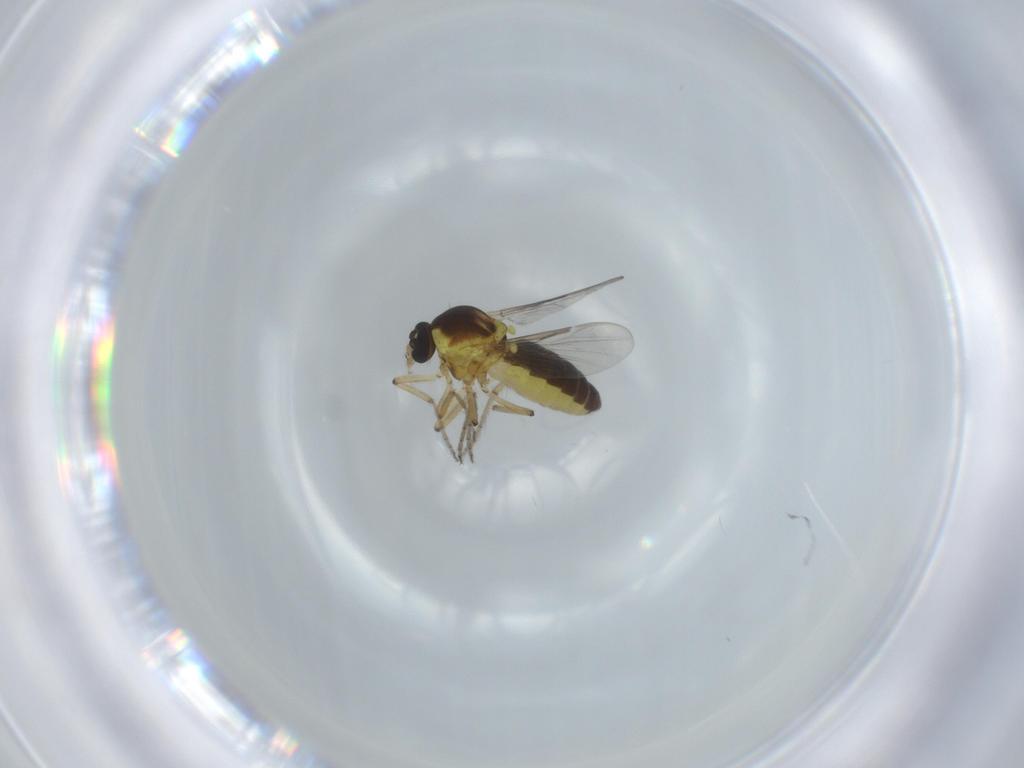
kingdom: Animalia
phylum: Arthropoda
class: Insecta
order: Diptera
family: Ceratopogonidae
